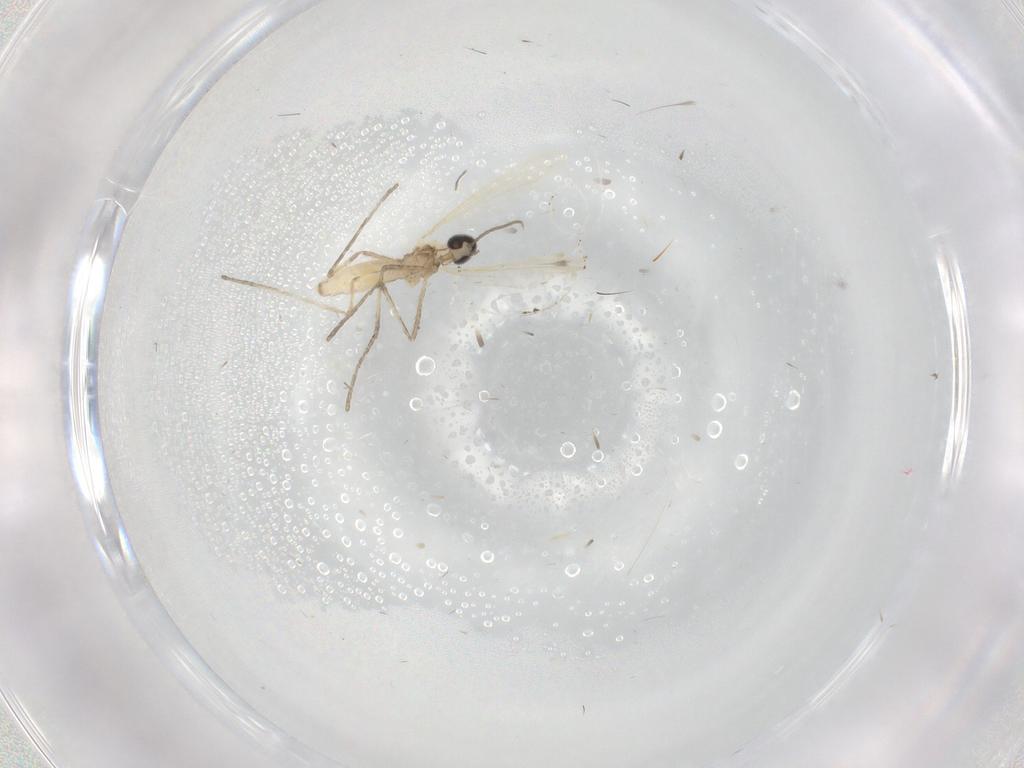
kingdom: Animalia
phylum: Arthropoda
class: Insecta
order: Diptera
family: Cecidomyiidae
